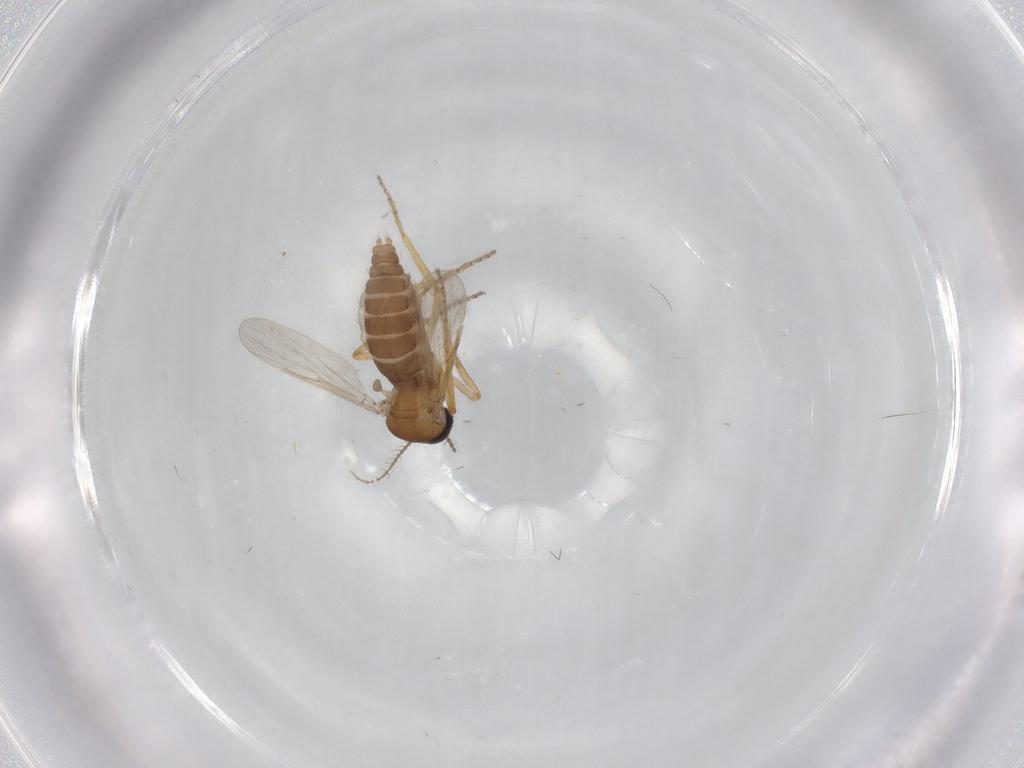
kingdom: Animalia
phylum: Arthropoda
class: Insecta
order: Diptera
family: Ceratopogonidae
